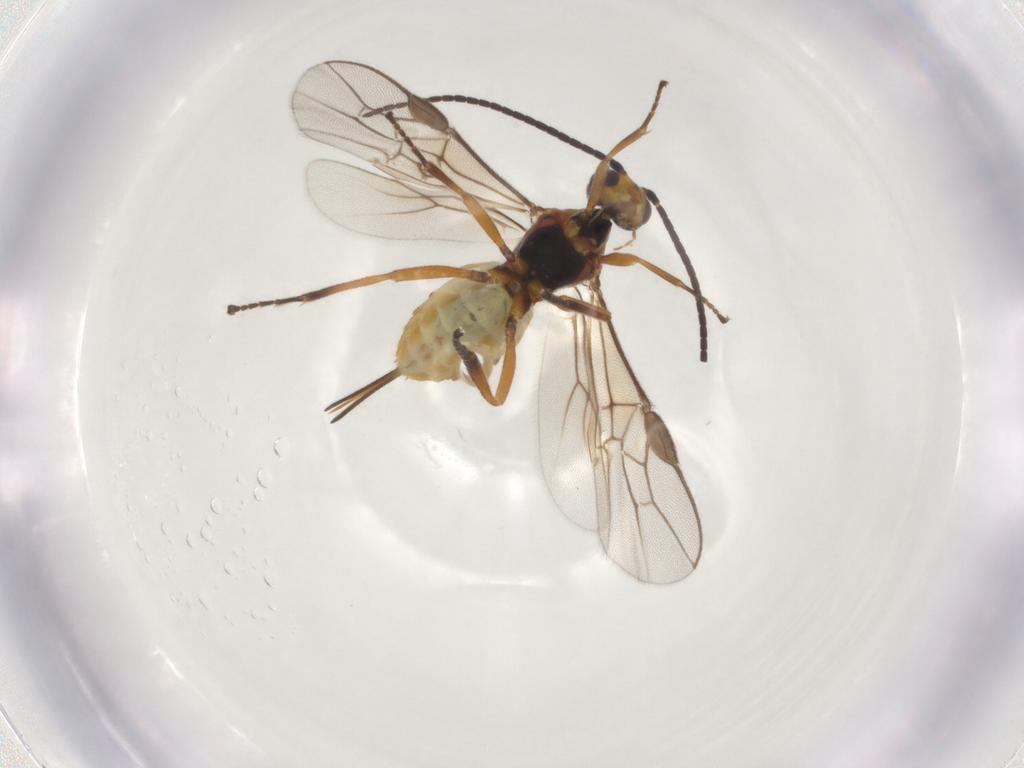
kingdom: Animalia
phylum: Arthropoda
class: Insecta
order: Hymenoptera
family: Braconidae
